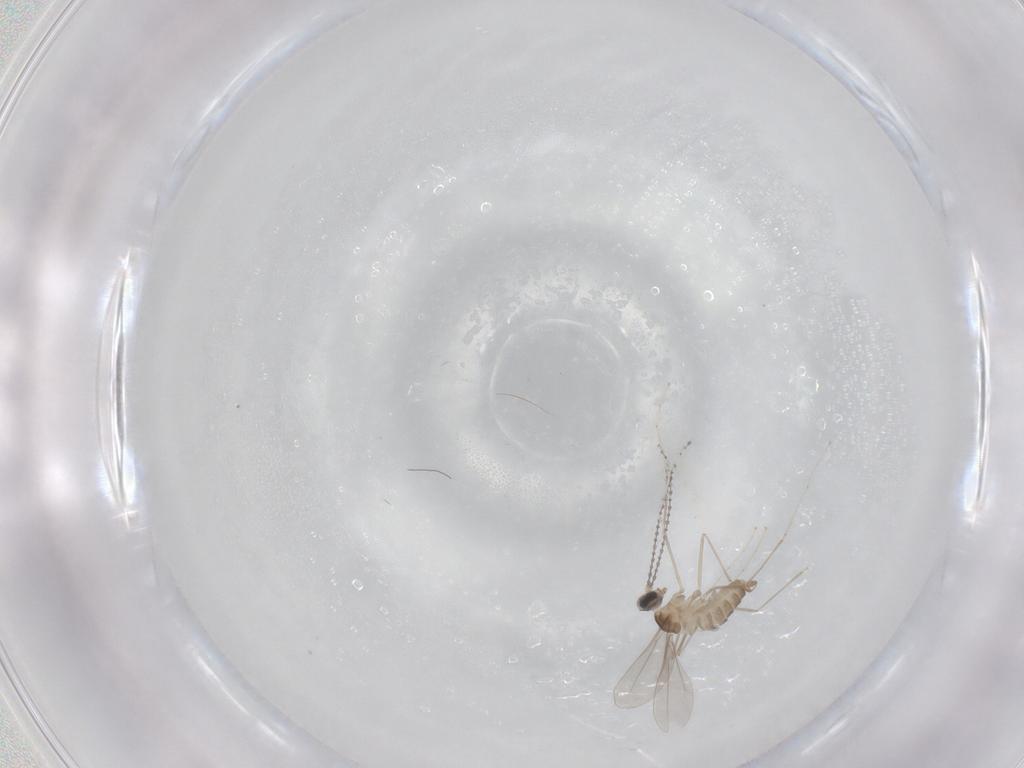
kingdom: Animalia
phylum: Arthropoda
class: Insecta
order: Diptera
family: Cecidomyiidae
